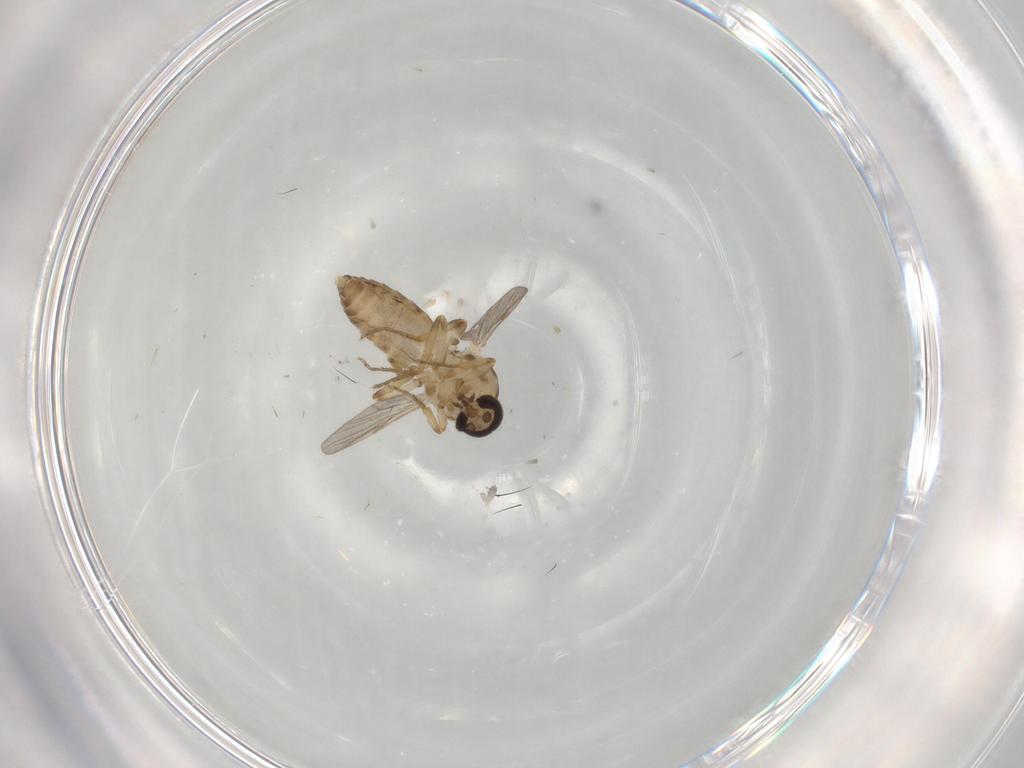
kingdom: Animalia
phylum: Arthropoda
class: Insecta
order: Diptera
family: Ceratopogonidae
